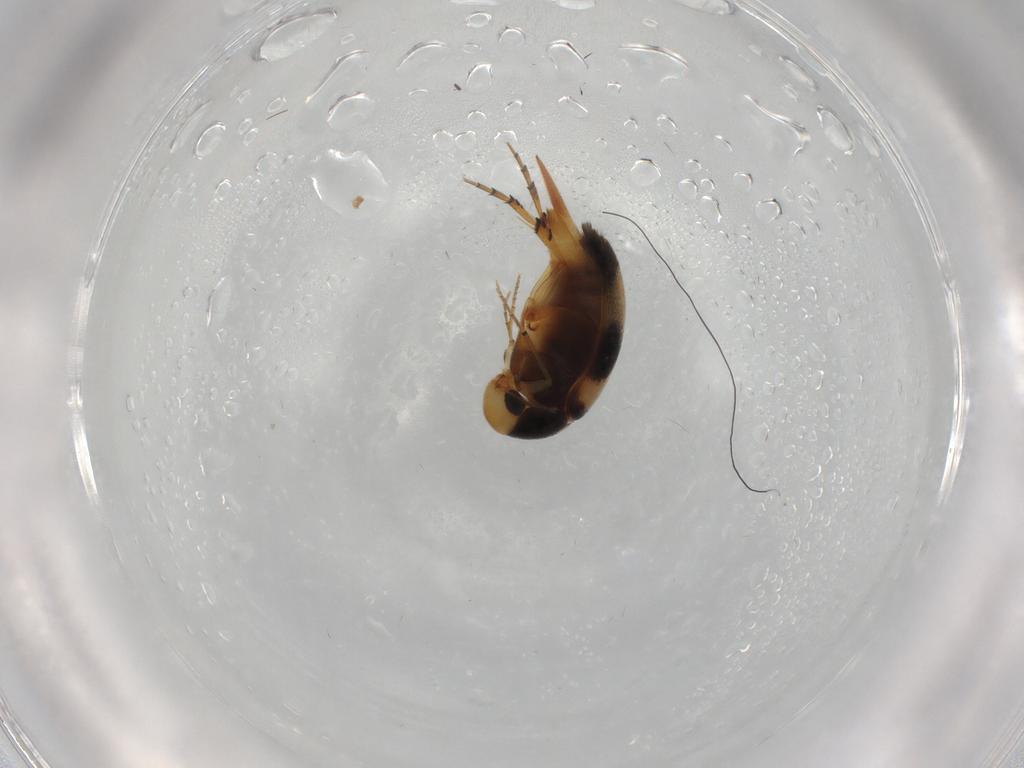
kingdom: Animalia
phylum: Arthropoda
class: Insecta
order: Coleoptera
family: Mordellidae
